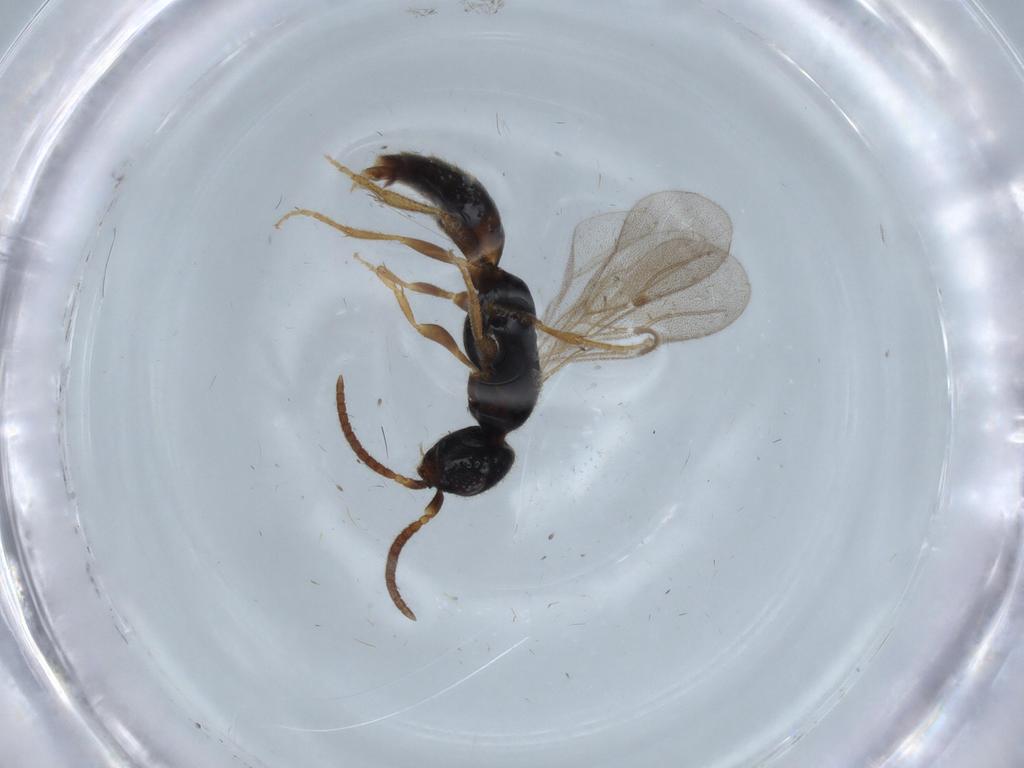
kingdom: Animalia
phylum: Arthropoda
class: Insecta
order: Hymenoptera
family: Bethylidae
